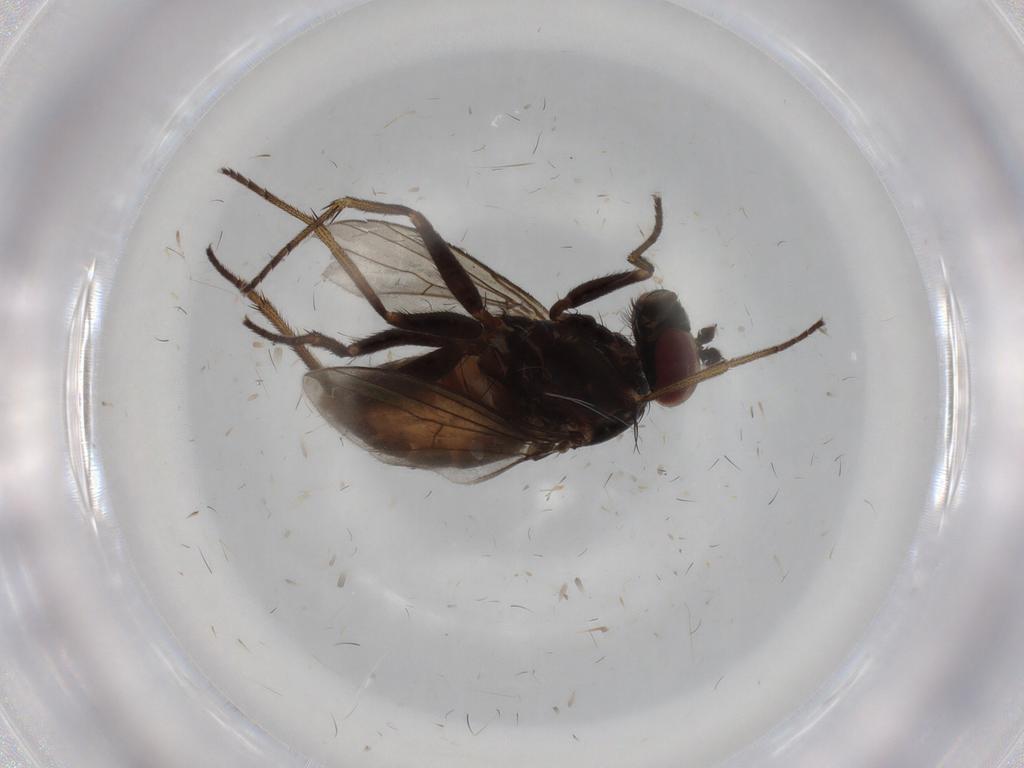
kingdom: Animalia
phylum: Arthropoda
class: Insecta
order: Diptera
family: Dolichopodidae
